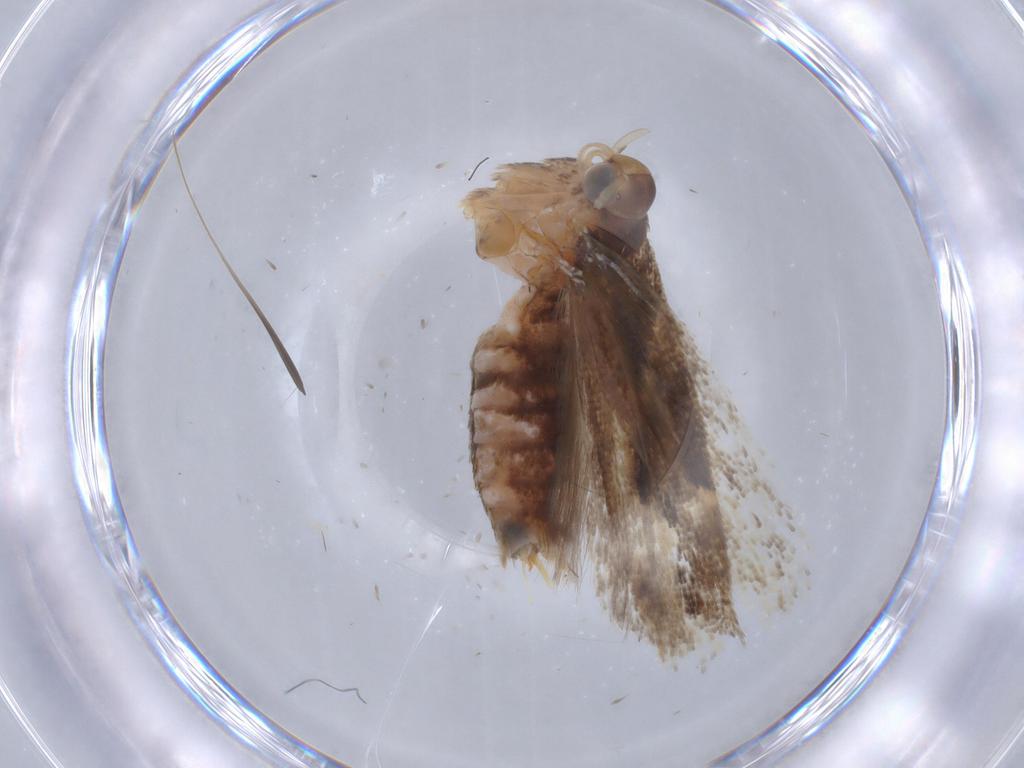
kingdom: Animalia
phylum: Arthropoda
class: Insecta
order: Lepidoptera
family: Gelechiidae
